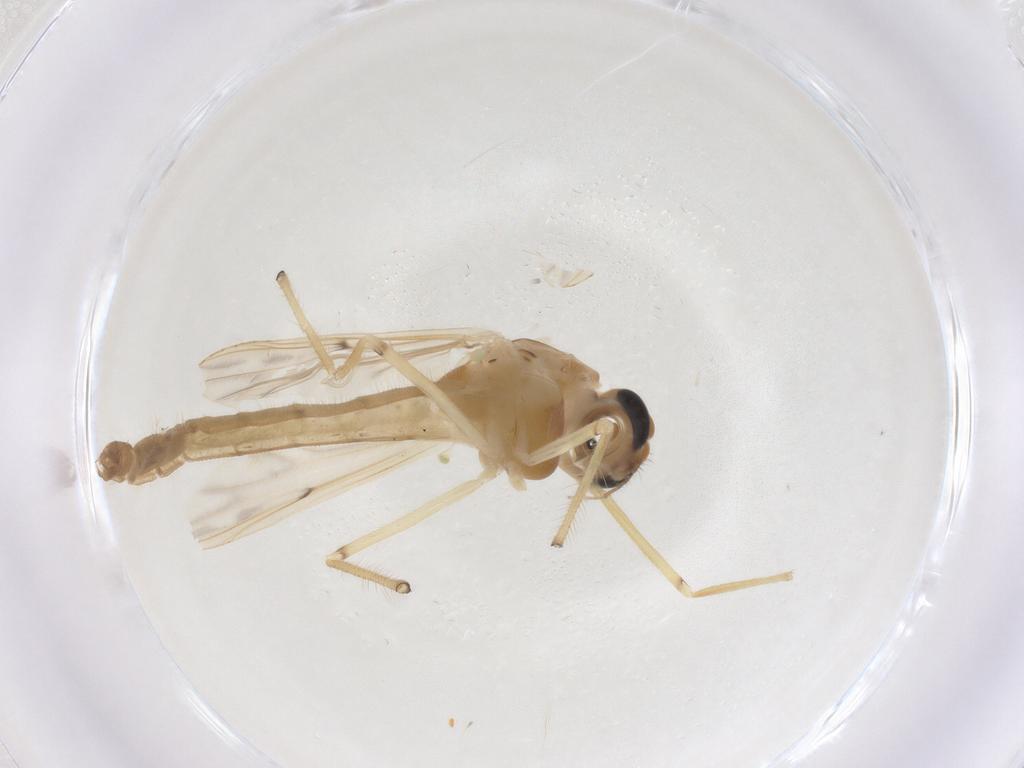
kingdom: Animalia
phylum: Arthropoda
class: Insecta
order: Diptera
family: Chironomidae
